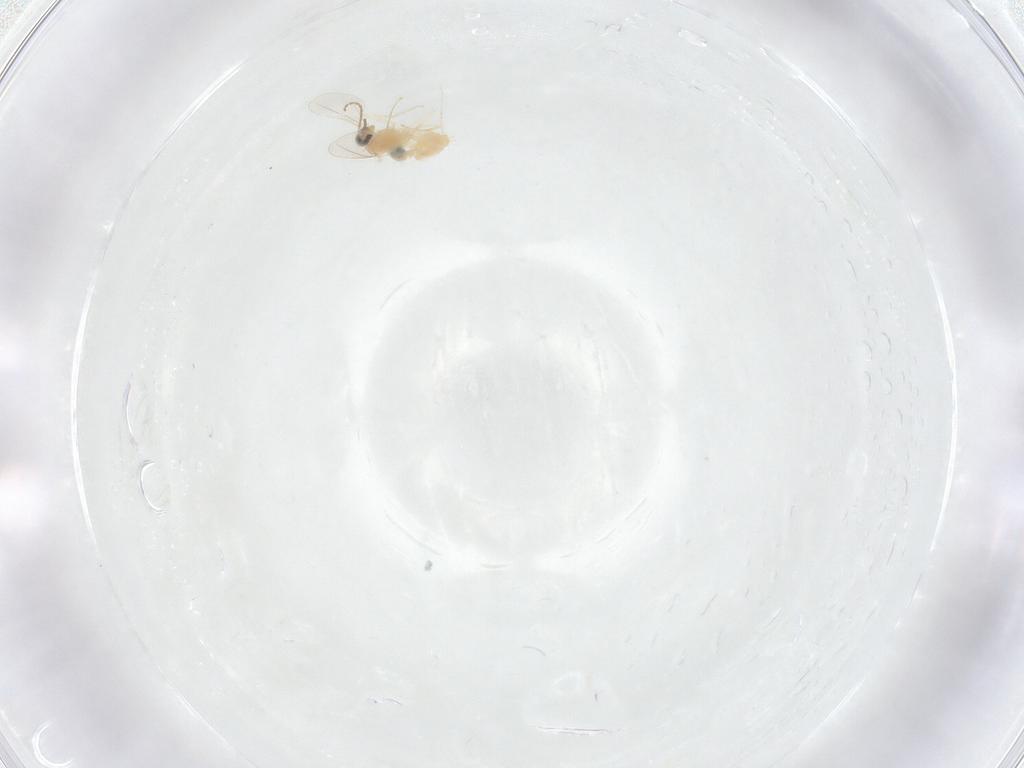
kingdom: Animalia
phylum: Arthropoda
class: Insecta
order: Diptera
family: Cecidomyiidae
